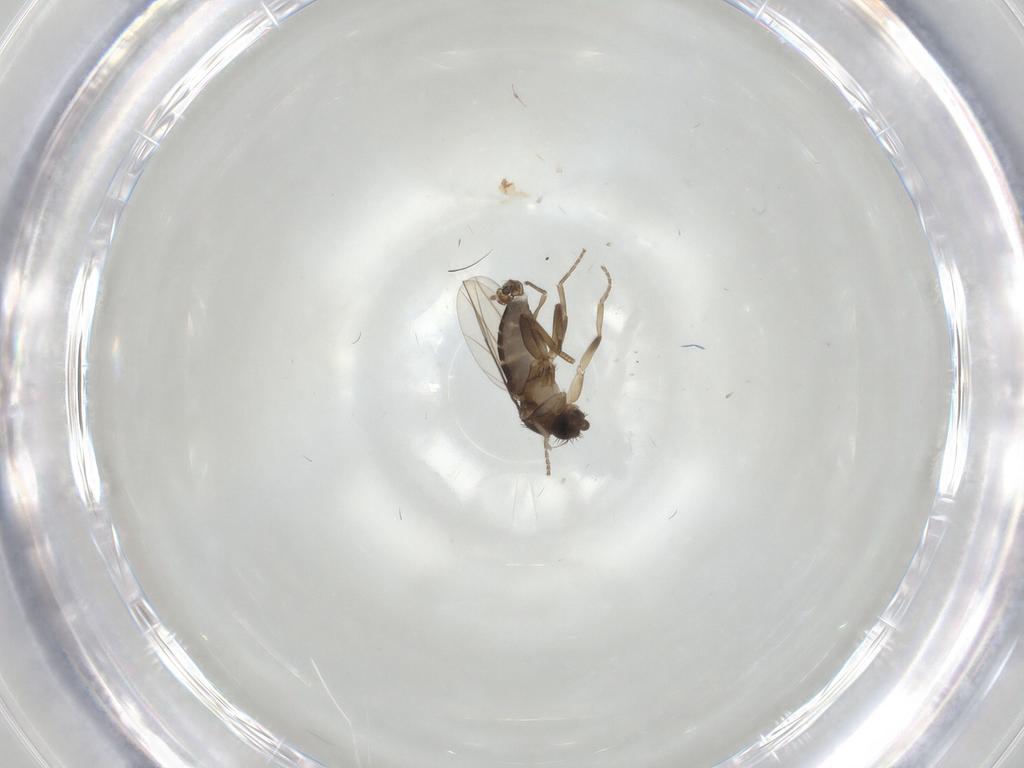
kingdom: Animalia
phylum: Arthropoda
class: Insecta
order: Diptera
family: Phoridae
